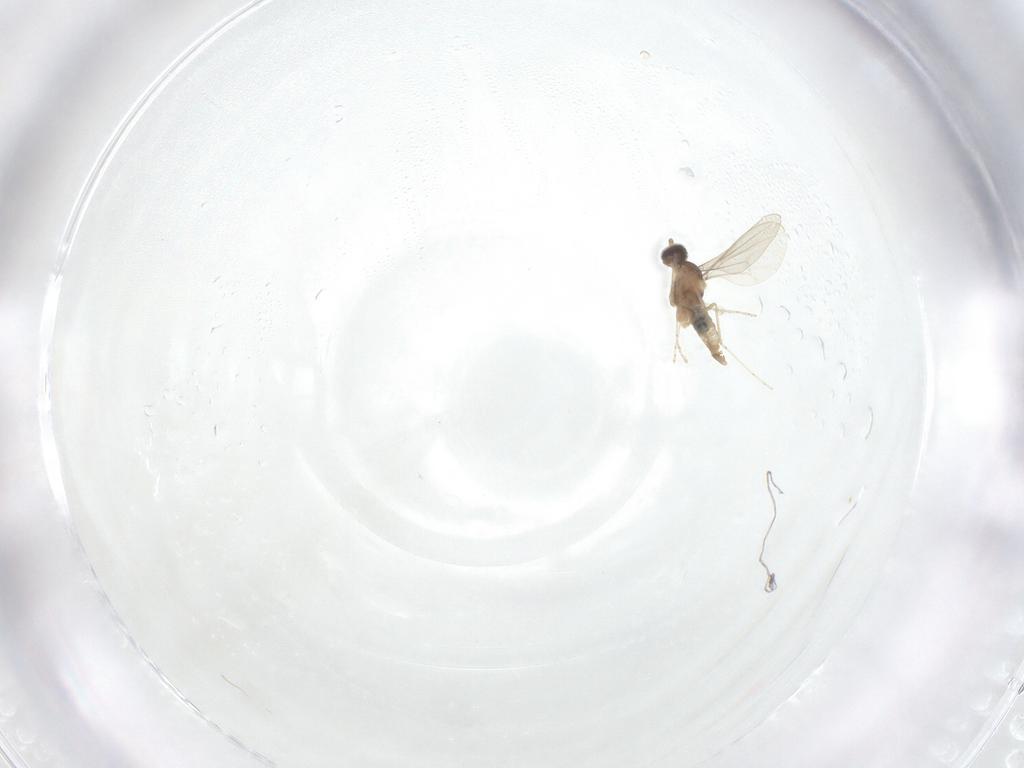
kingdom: Animalia
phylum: Arthropoda
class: Insecta
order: Diptera
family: Cecidomyiidae
